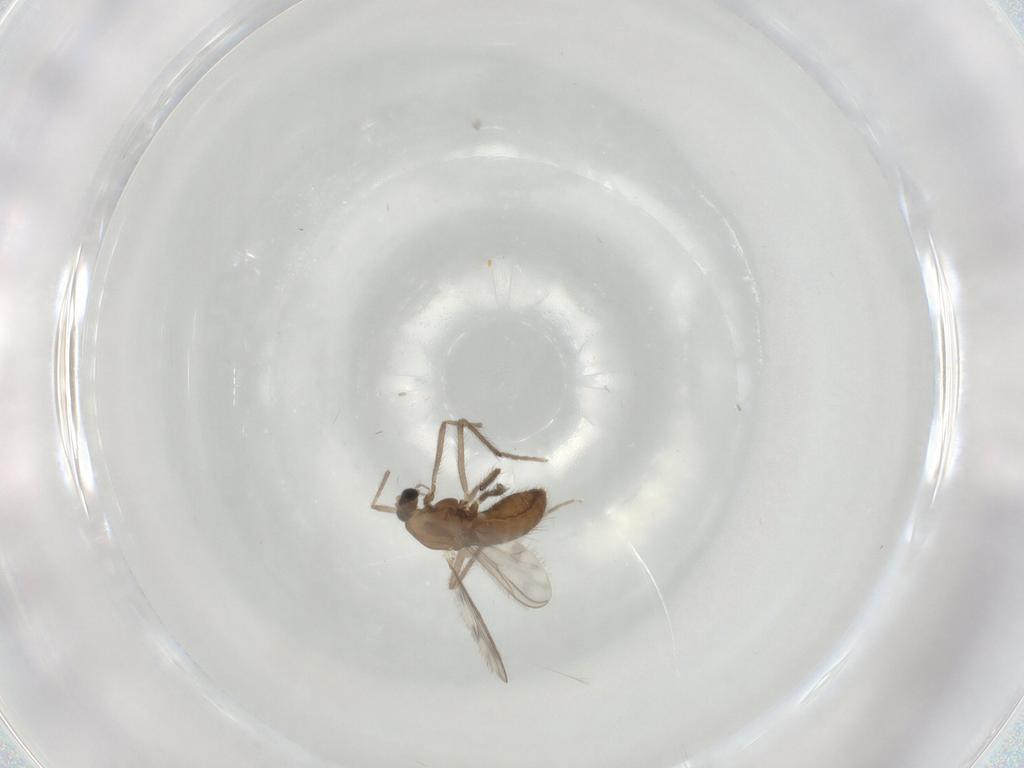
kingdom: Animalia
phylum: Arthropoda
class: Insecta
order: Diptera
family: Chironomidae
